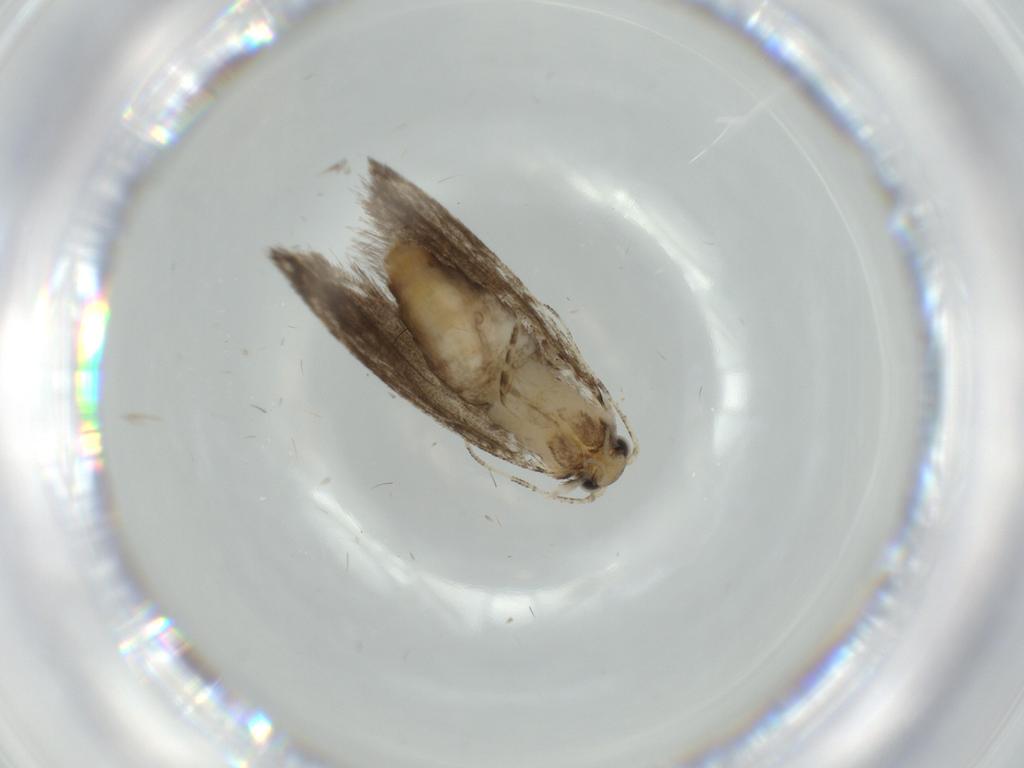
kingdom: Animalia
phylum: Arthropoda
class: Insecta
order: Lepidoptera
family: Tineidae
